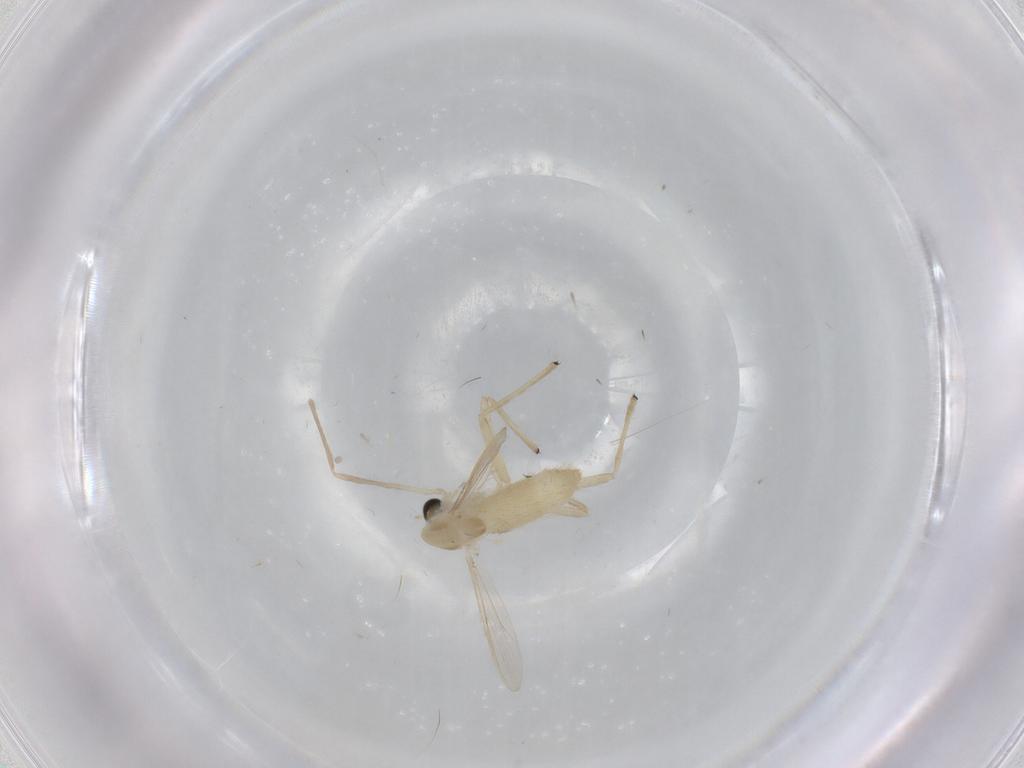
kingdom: Animalia
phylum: Arthropoda
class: Insecta
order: Diptera
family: Chironomidae
